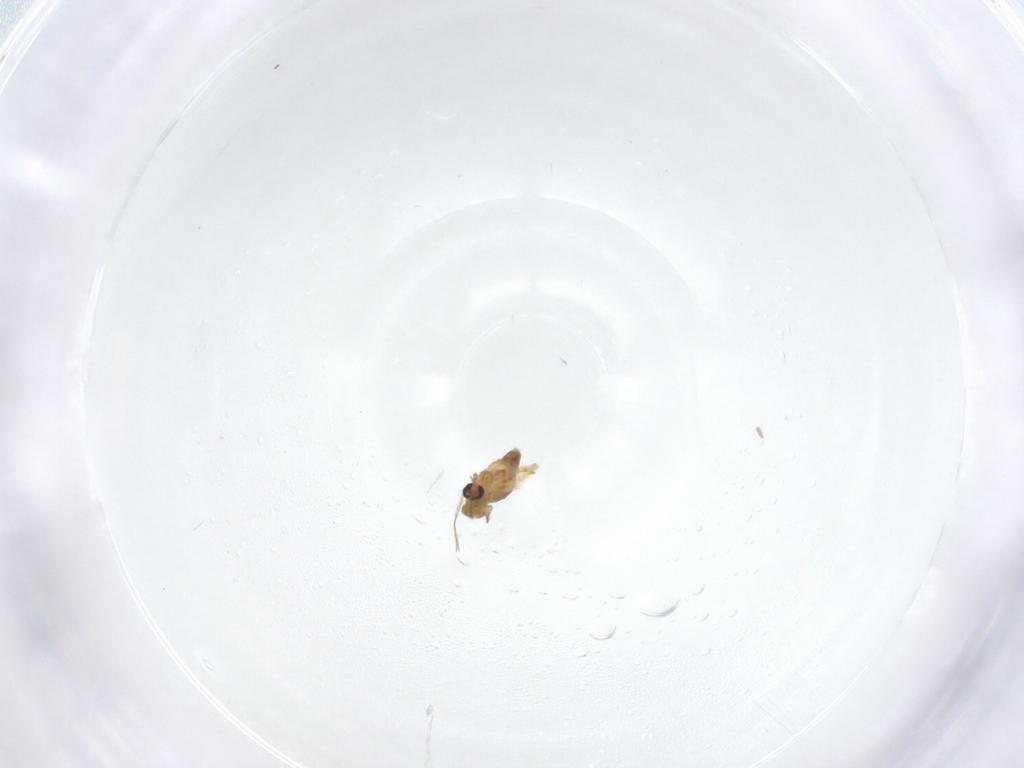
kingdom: Animalia
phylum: Arthropoda
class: Insecta
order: Diptera
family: Chironomidae
